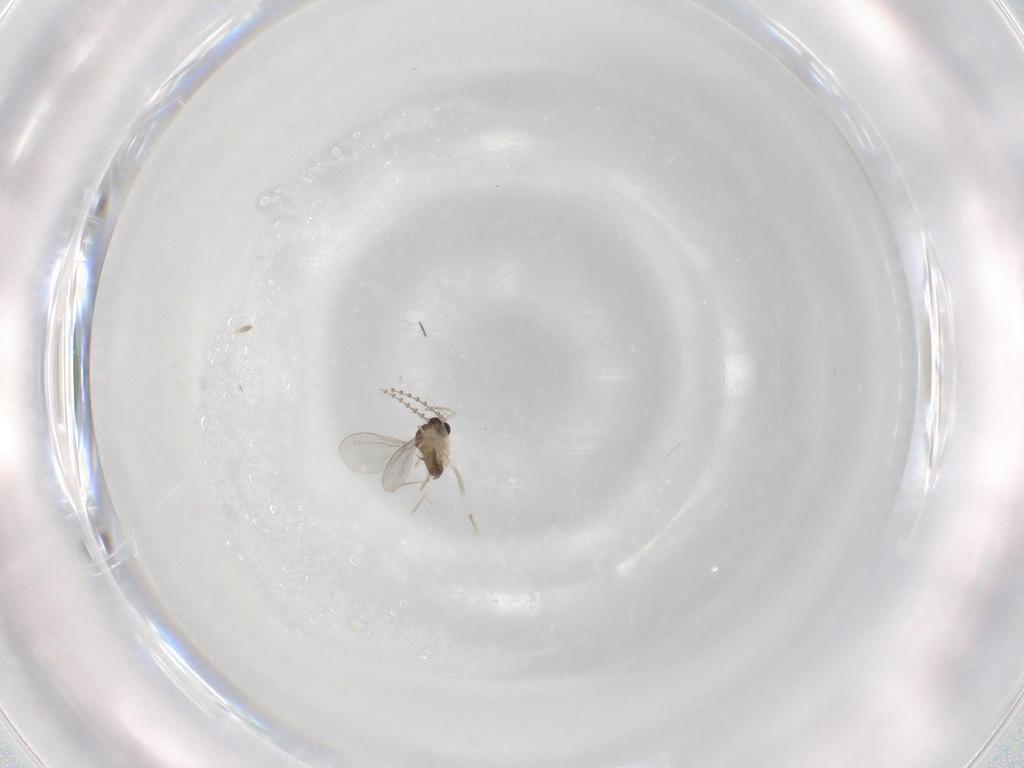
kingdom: Animalia
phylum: Arthropoda
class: Insecta
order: Diptera
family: Cecidomyiidae
